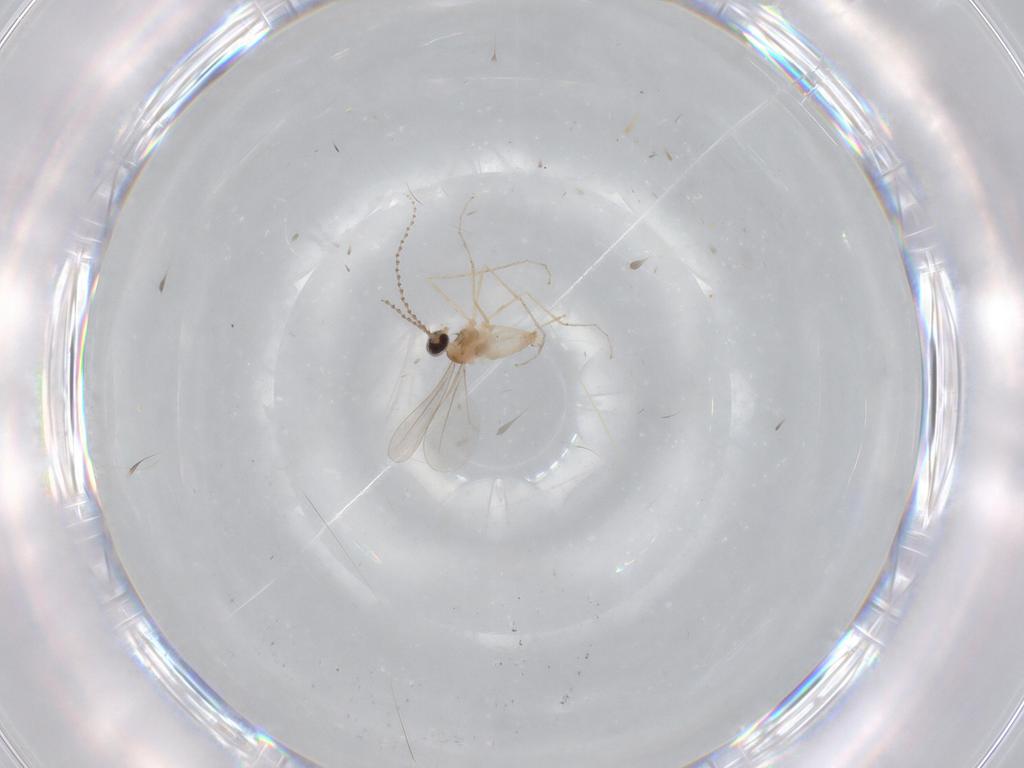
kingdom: Animalia
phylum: Arthropoda
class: Insecta
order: Diptera
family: Cecidomyiidae
